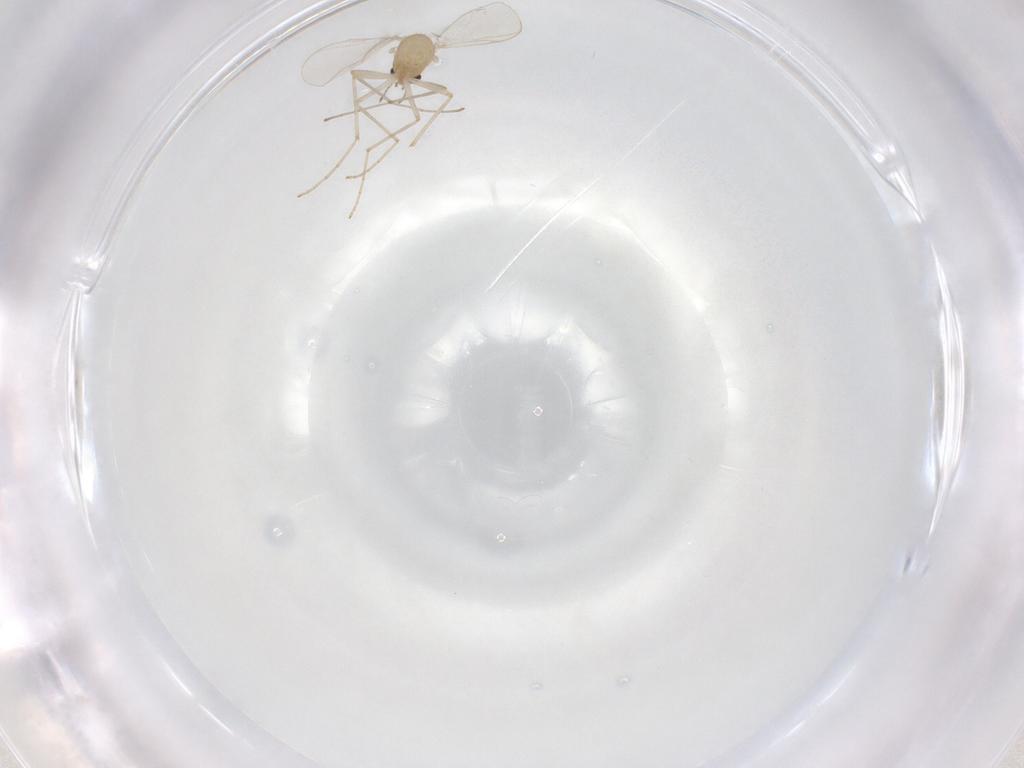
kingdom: Animalia
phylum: Arthropoda
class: Insecta
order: Diptera
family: Chironomidae
